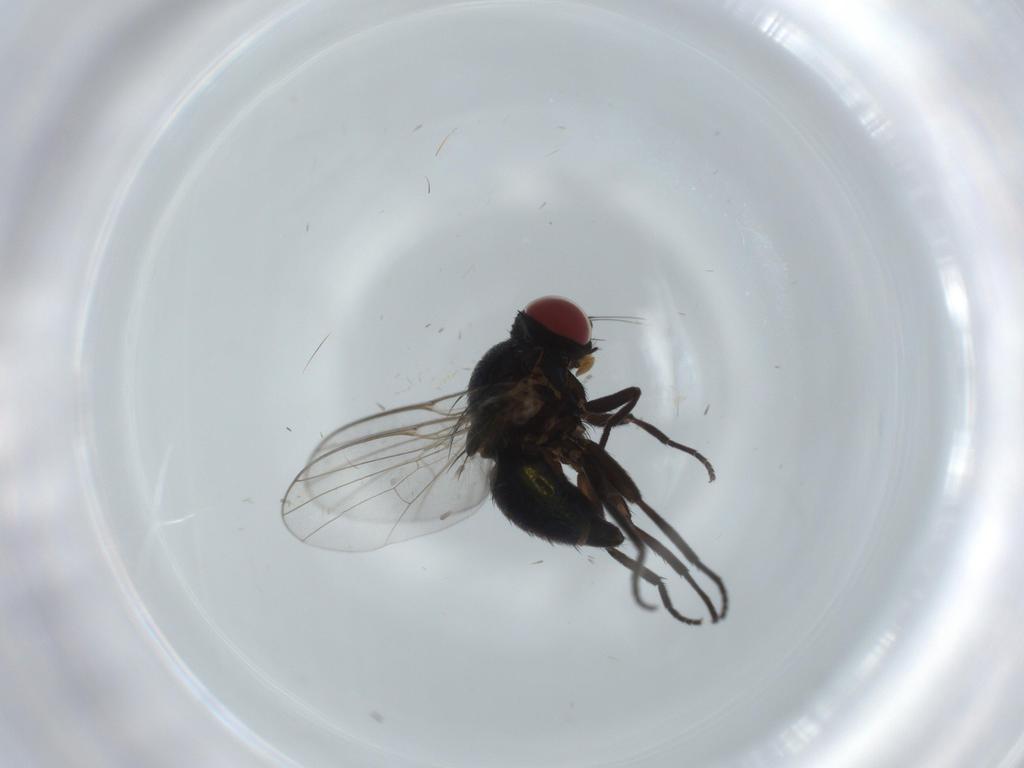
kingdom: Animalia
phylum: Arthropoda
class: Insecta
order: Diptera
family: Agromyzidae
